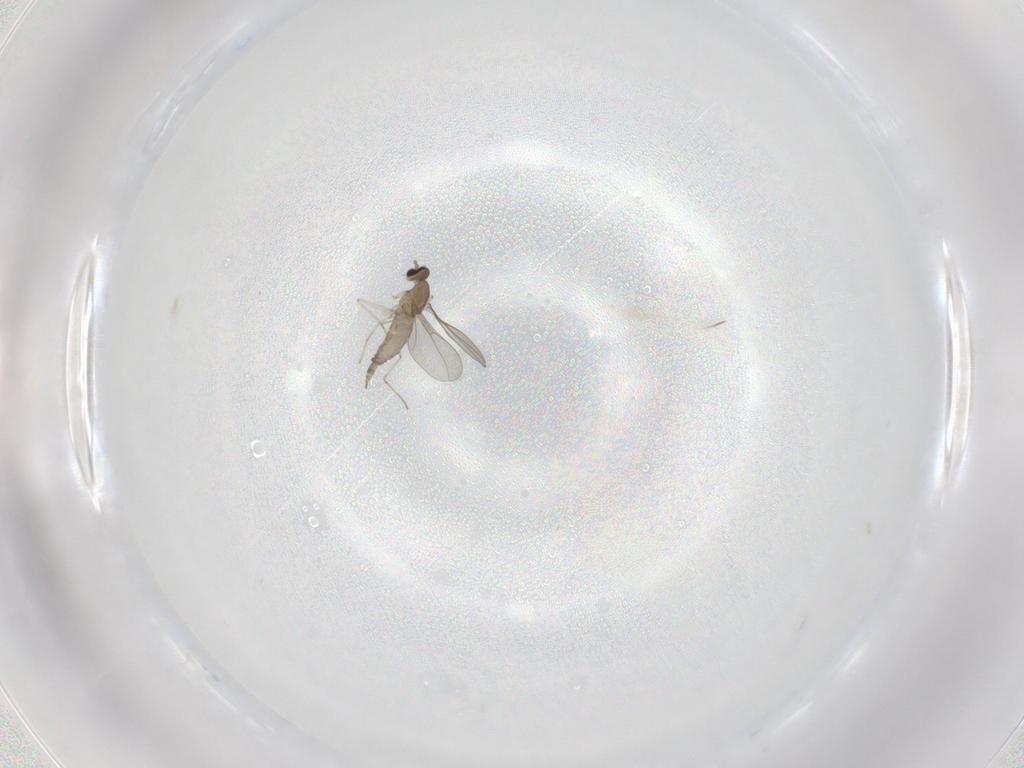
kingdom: Animalia
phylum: Arthropoda
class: Insecta
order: Diptera
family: Cecidomyiidae
